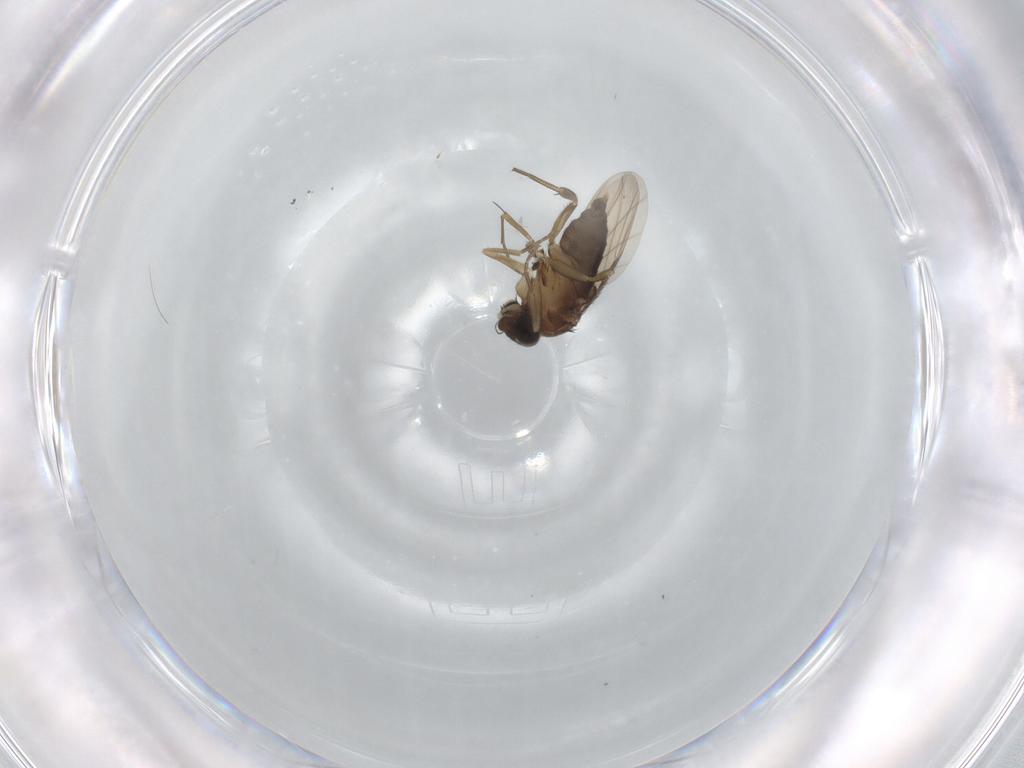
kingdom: Animalia
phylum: Arthropoda
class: Insecta
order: Diptera
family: Phoridae
